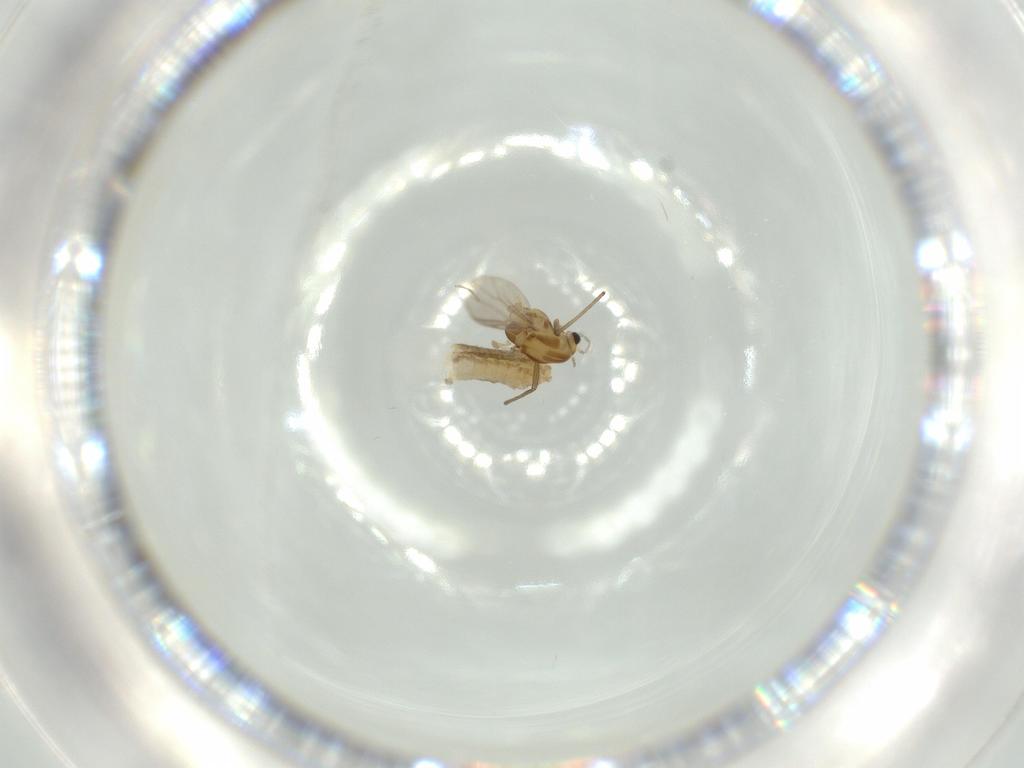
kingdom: Animalia
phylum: Arthropoda
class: Insecta
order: Diptera
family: Chironomidae
